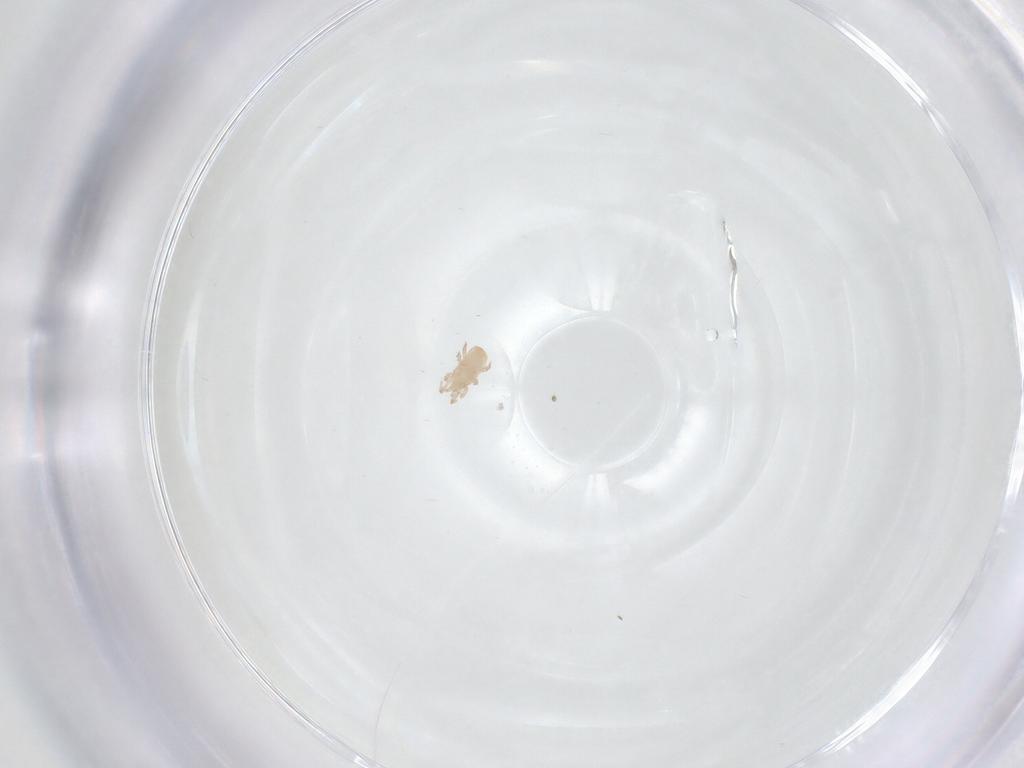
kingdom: Animalia
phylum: Arthropoda
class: Arachnida
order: Mesostigmata
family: Digamasellidae
